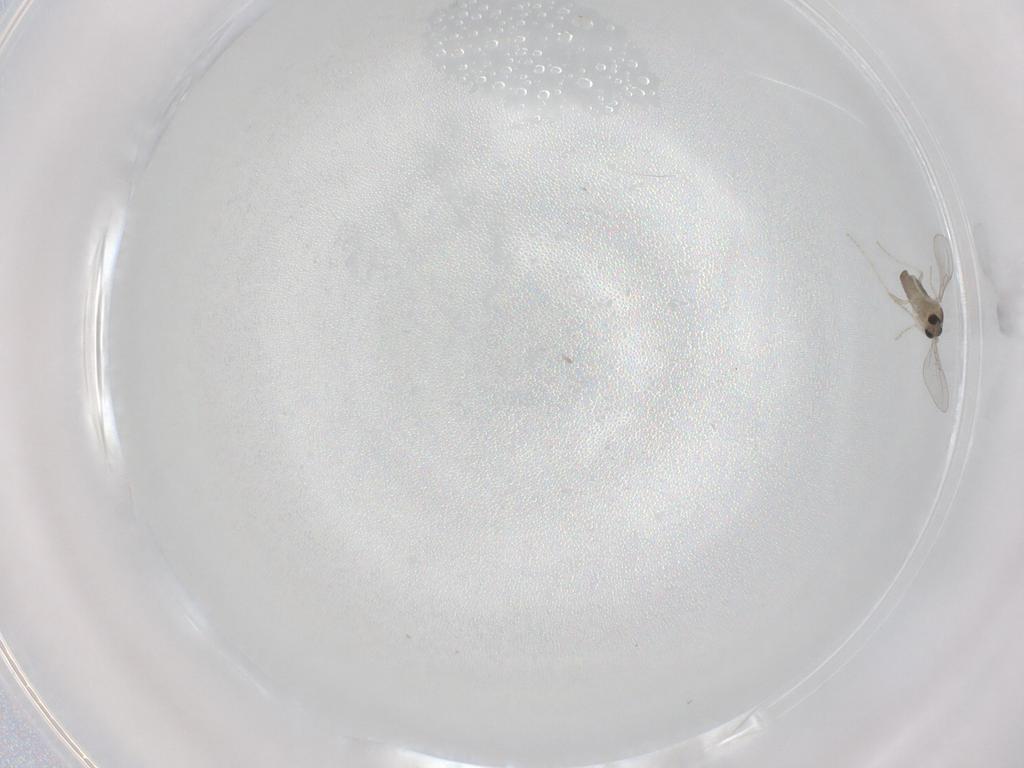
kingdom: Animalia
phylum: Arthropoda
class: Insecta
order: Diptera
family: Cecidomyiidae
